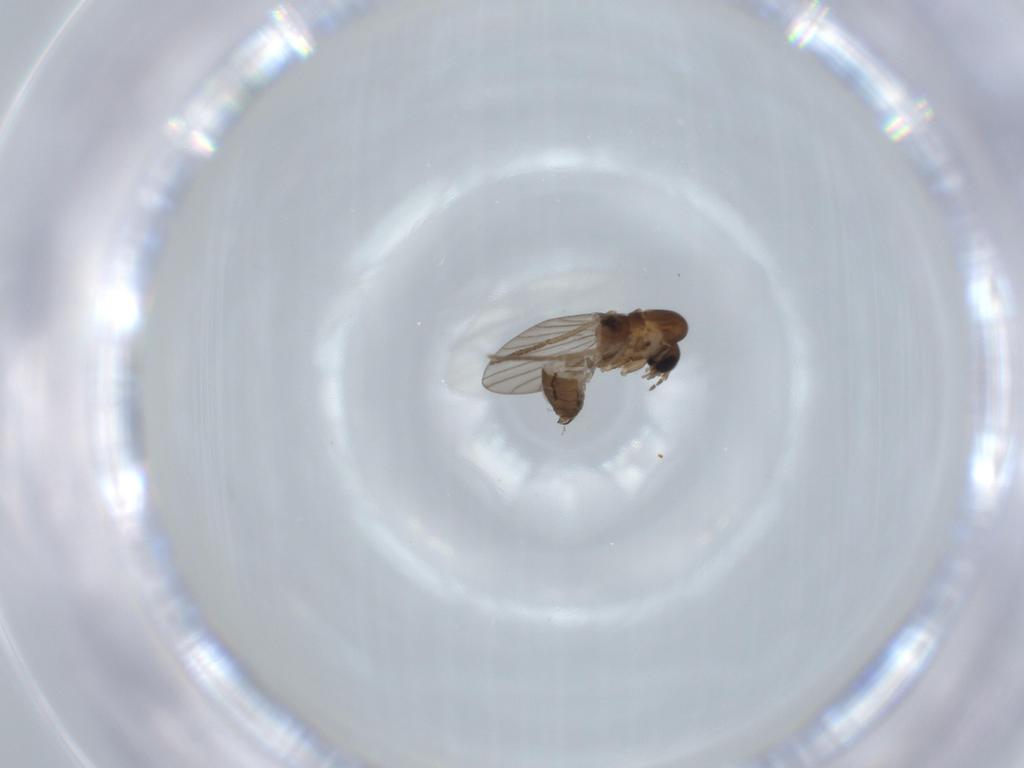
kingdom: Animalia
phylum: Arthropoda
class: Insecta
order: Diptera
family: Psychodidae
